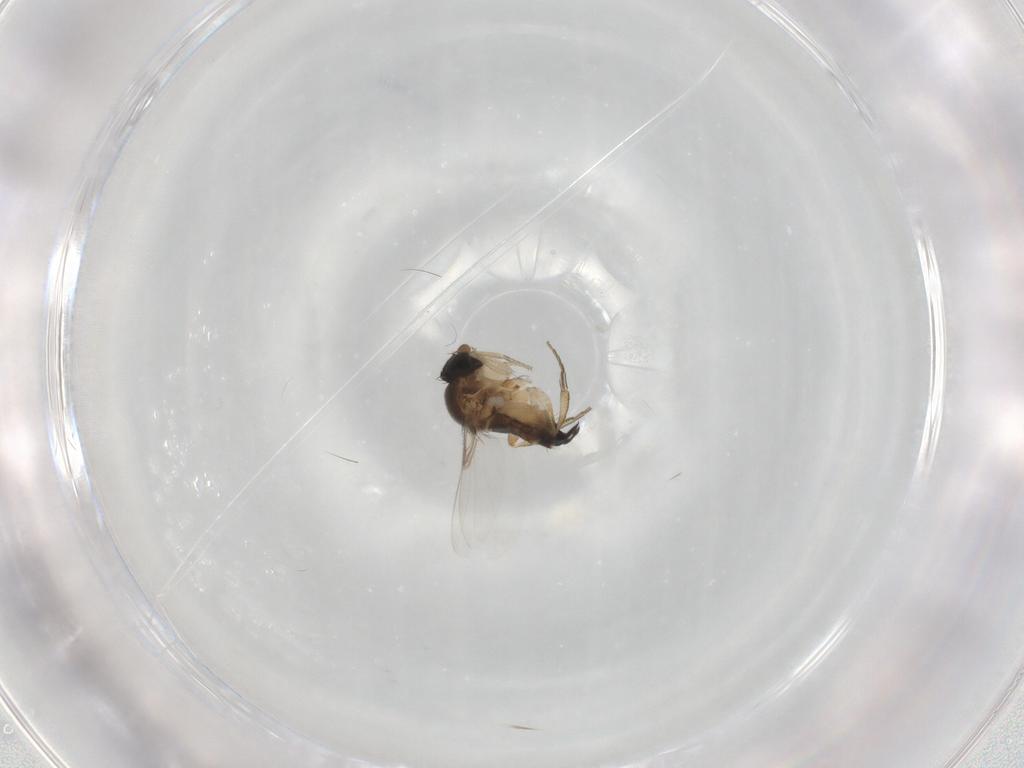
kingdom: Animalia
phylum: Arthropoda
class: Insecta
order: Diptera
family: Phoridae
